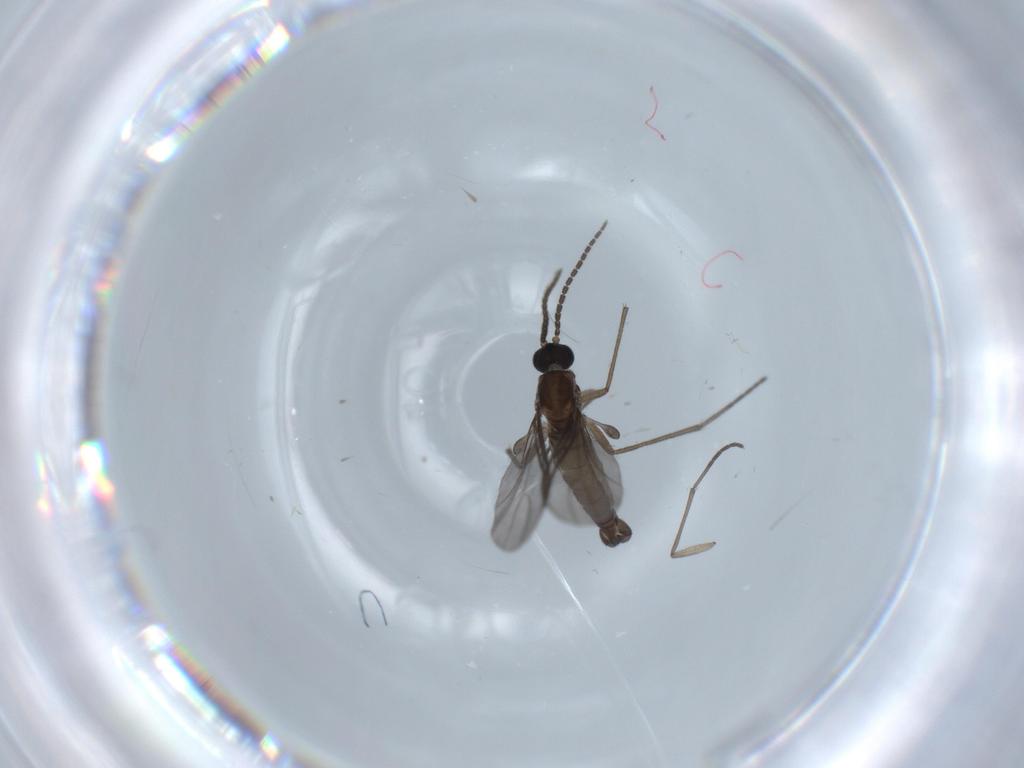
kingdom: Animalia
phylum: Arthropoda
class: Insecta
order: Diptera
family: Sciaridae
